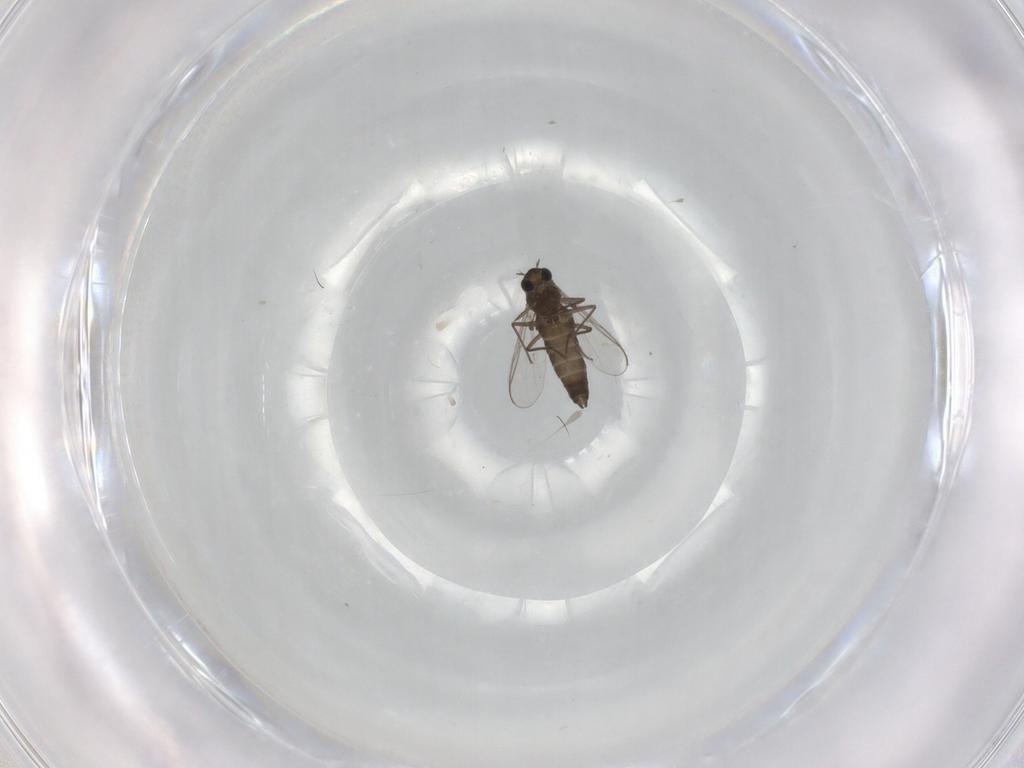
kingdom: Animalia
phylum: Arthropoda
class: Insecta
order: Diptera
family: Chironomidae
